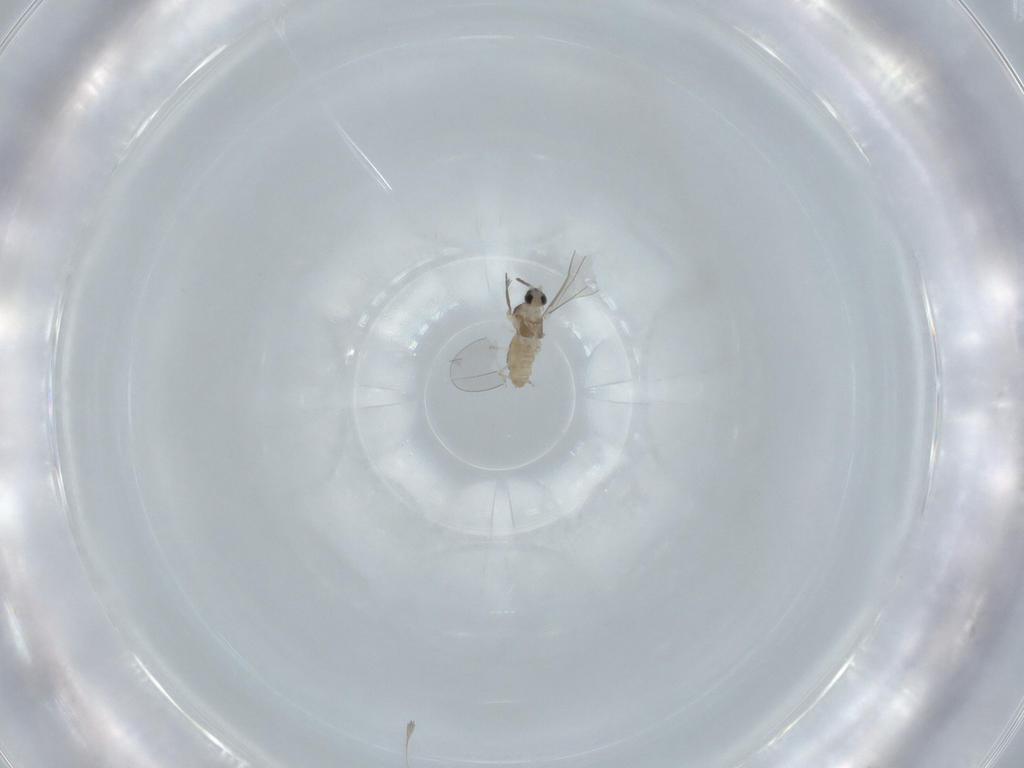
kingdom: Animalia
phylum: Arthropoda
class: Insecta
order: Diptera
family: Cecidomyiidae
